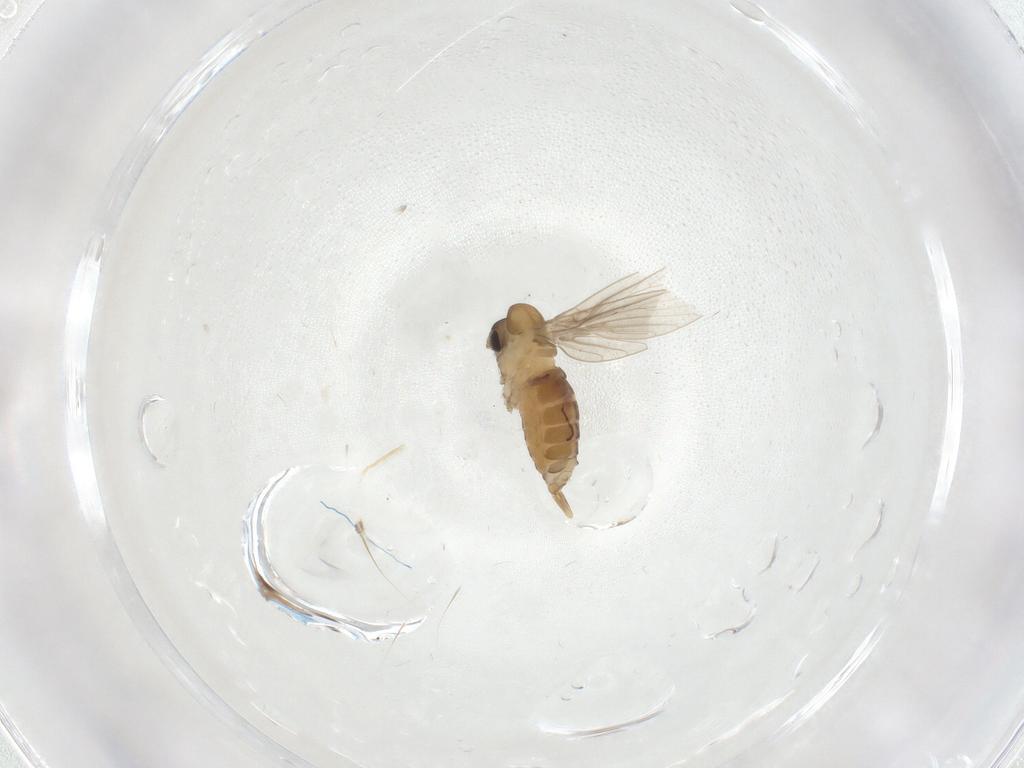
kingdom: Animalia
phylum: Arthropoda
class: Insecta
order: Diptera
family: Psychodidae
